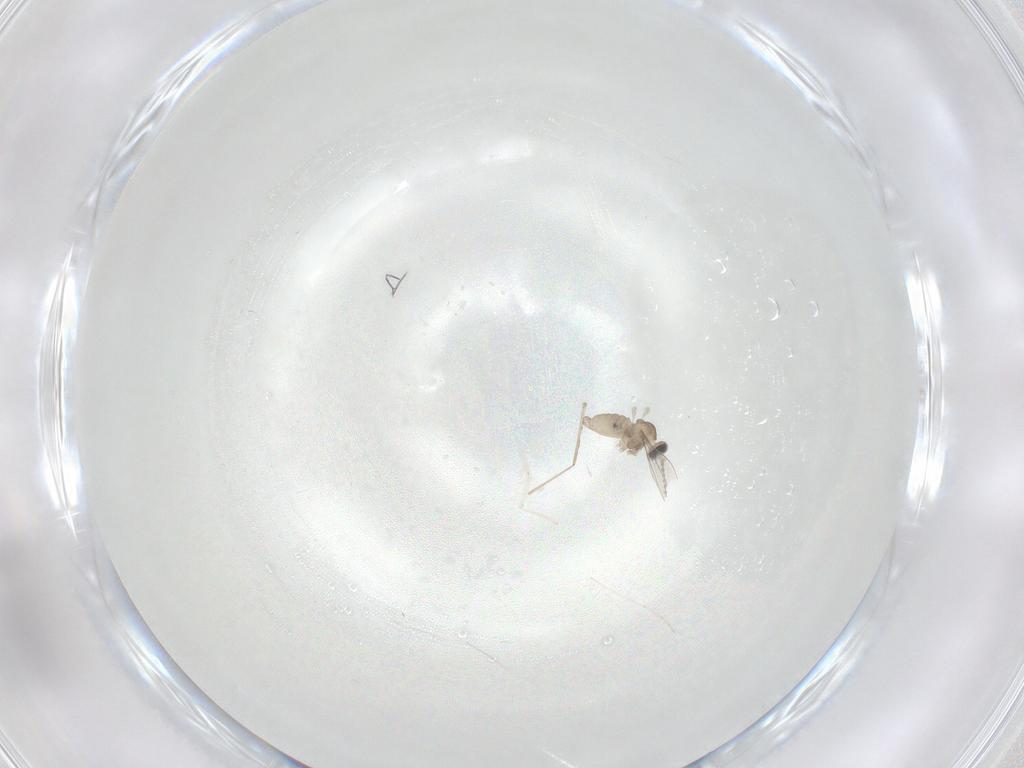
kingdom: Animalia
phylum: Arthropoda
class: Insecta
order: Diptera
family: Cecidomyiidae
